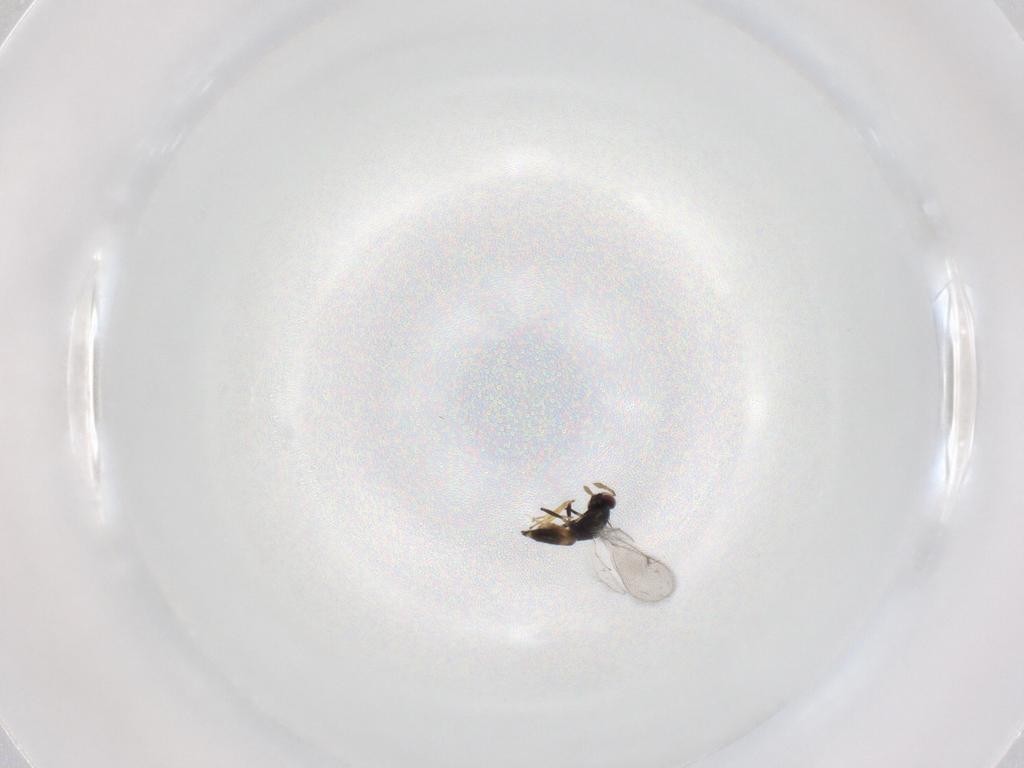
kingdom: Animalia
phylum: Arthropoda
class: Insecta
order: Hymenoptera
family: Eulophidae
